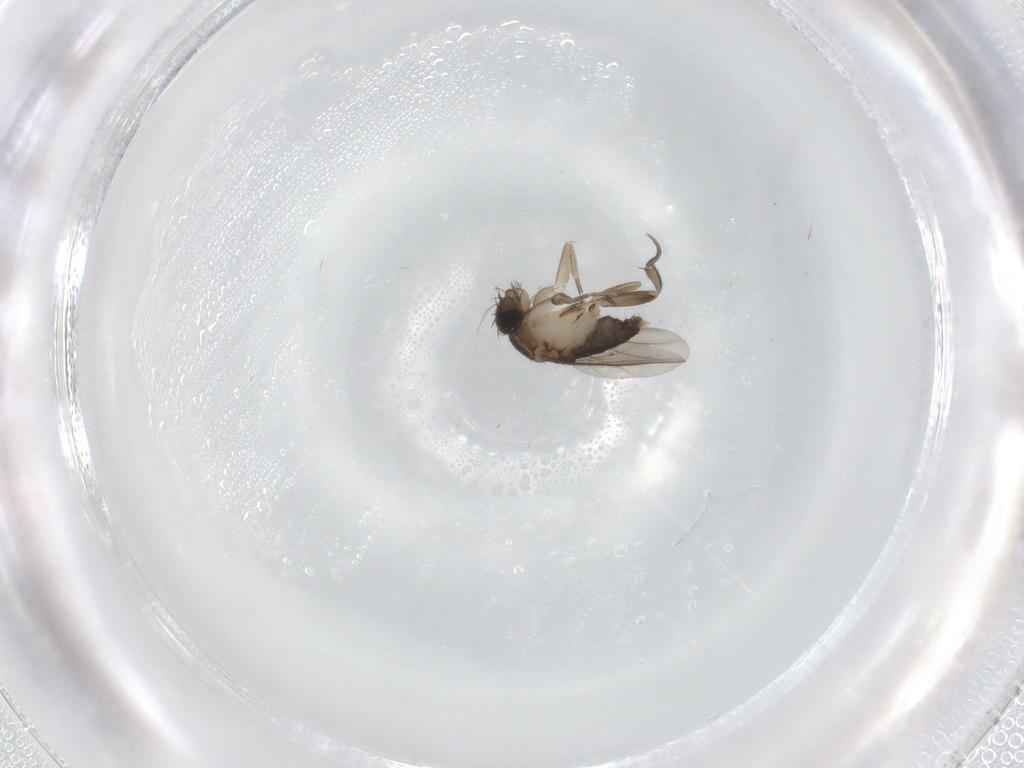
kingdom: Animalia
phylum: Arthropoda
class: Insecta
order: Diptera
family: Phoridae
